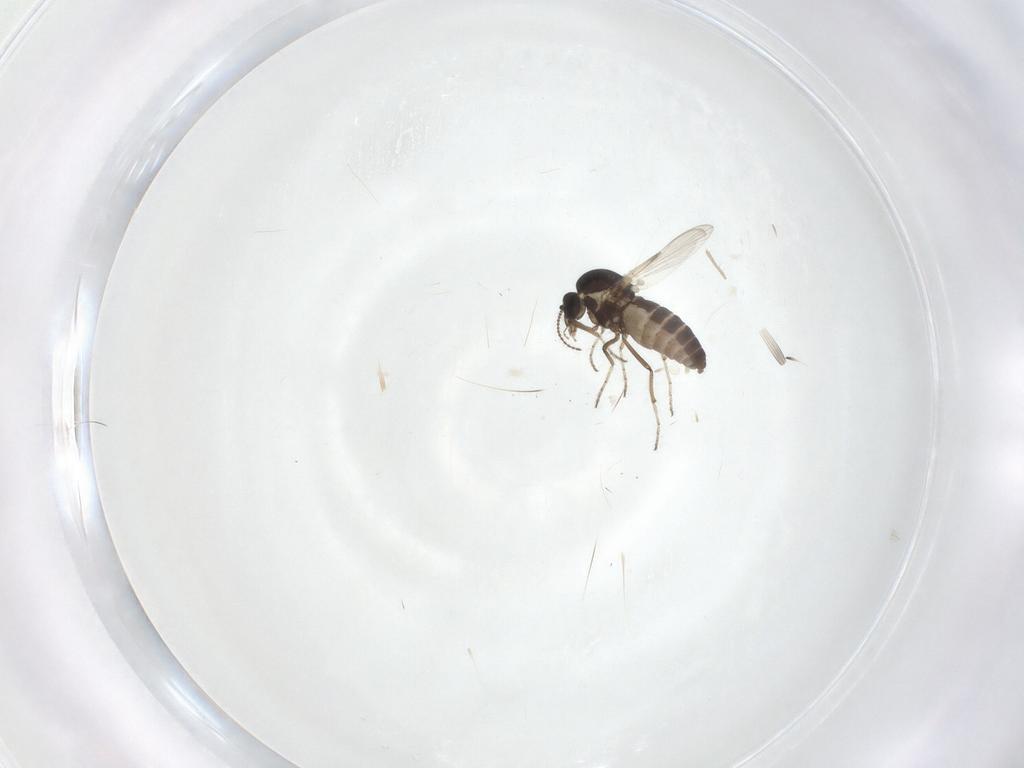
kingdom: Animalia
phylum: Arthropoda
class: Insecta
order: Diptera
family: Ceratopogonidae
